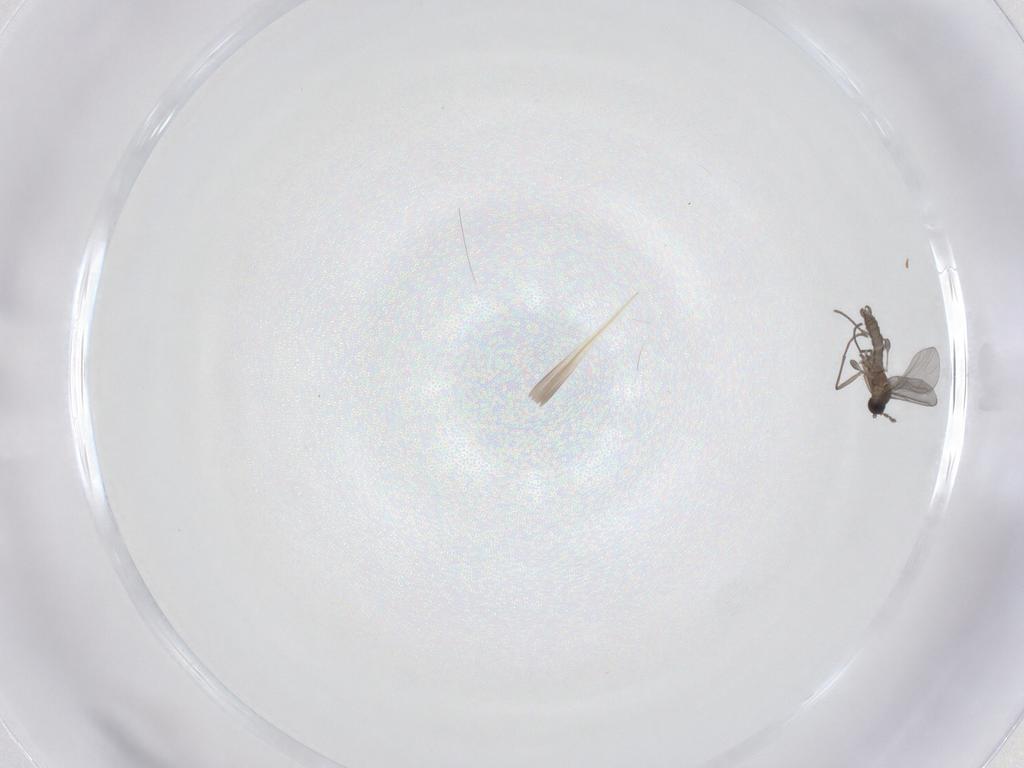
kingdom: Animalia
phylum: Arthropoda
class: Insecta
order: Diptera
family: Sciaridae
